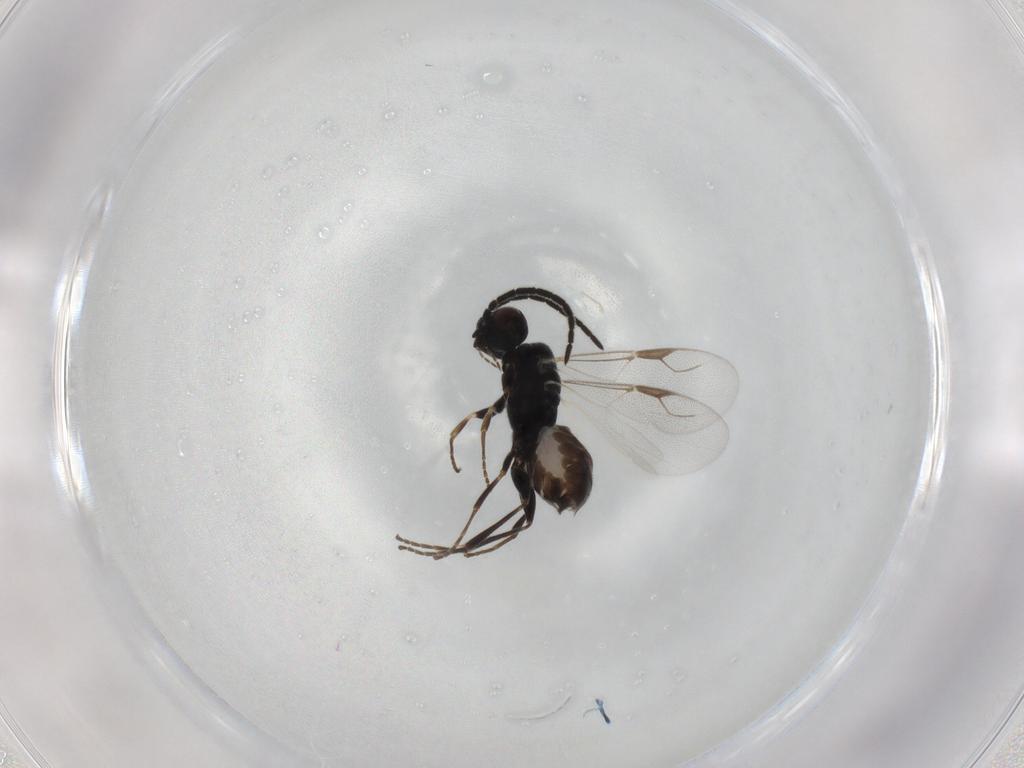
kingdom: Animalia
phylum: Arthropoda
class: Insecta
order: Hymenoptera
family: Dryinidae
